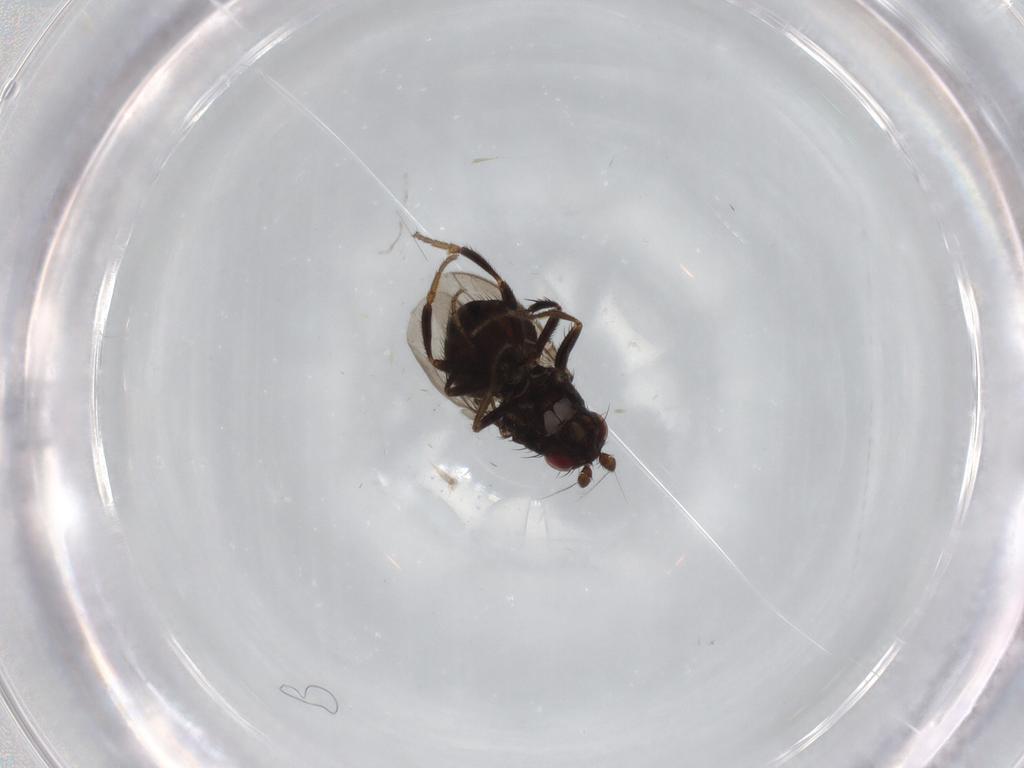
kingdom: Animalia
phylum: Arthropoda
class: Insecta
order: Diptera
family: Sphaeroceridae
